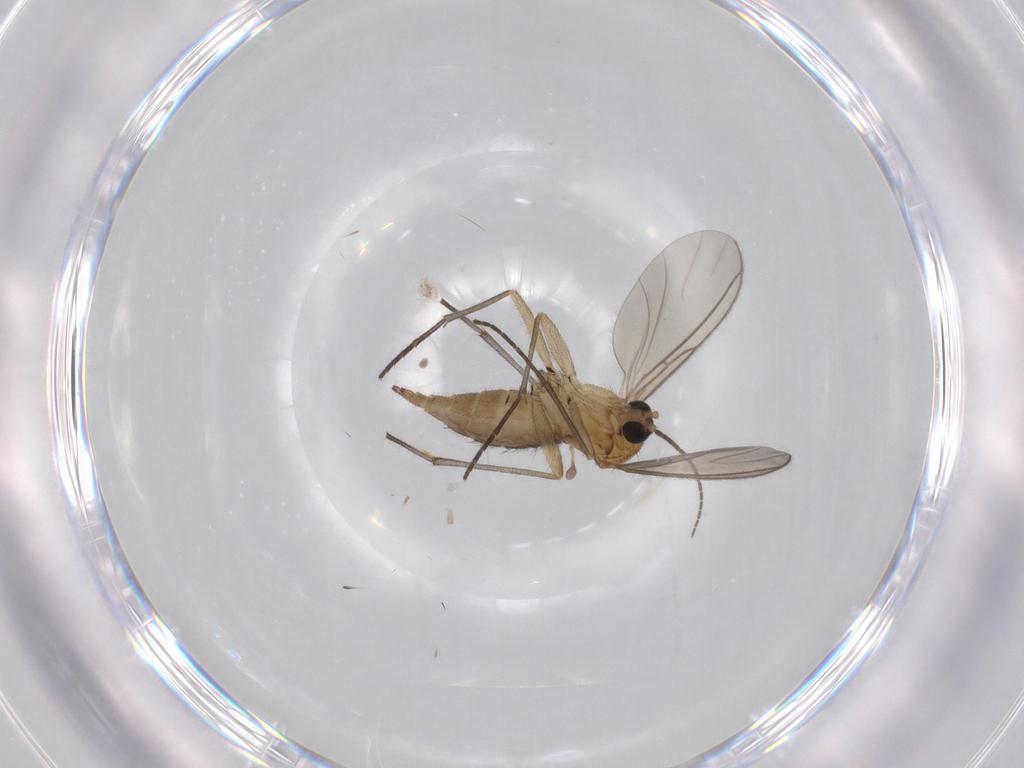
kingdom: Animalia
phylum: Arthropoda
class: Insecta
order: Diptera
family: Sciaridae
